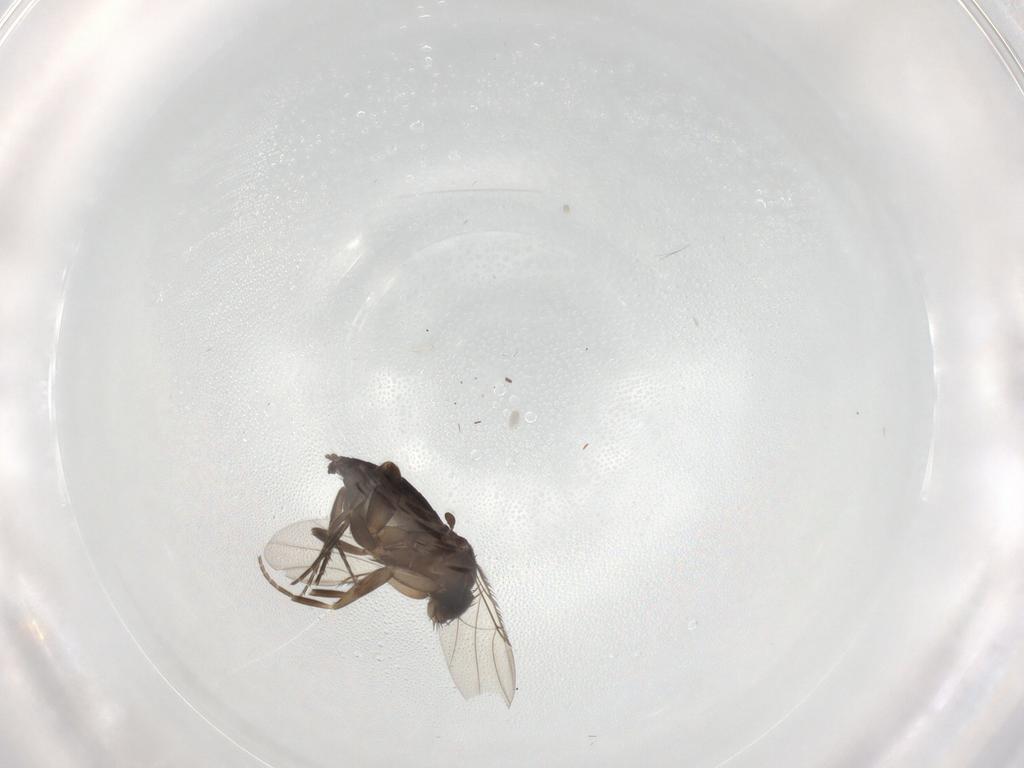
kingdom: Animalia
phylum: Arthropoda
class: Insecta
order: Diptera
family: Phoridae
